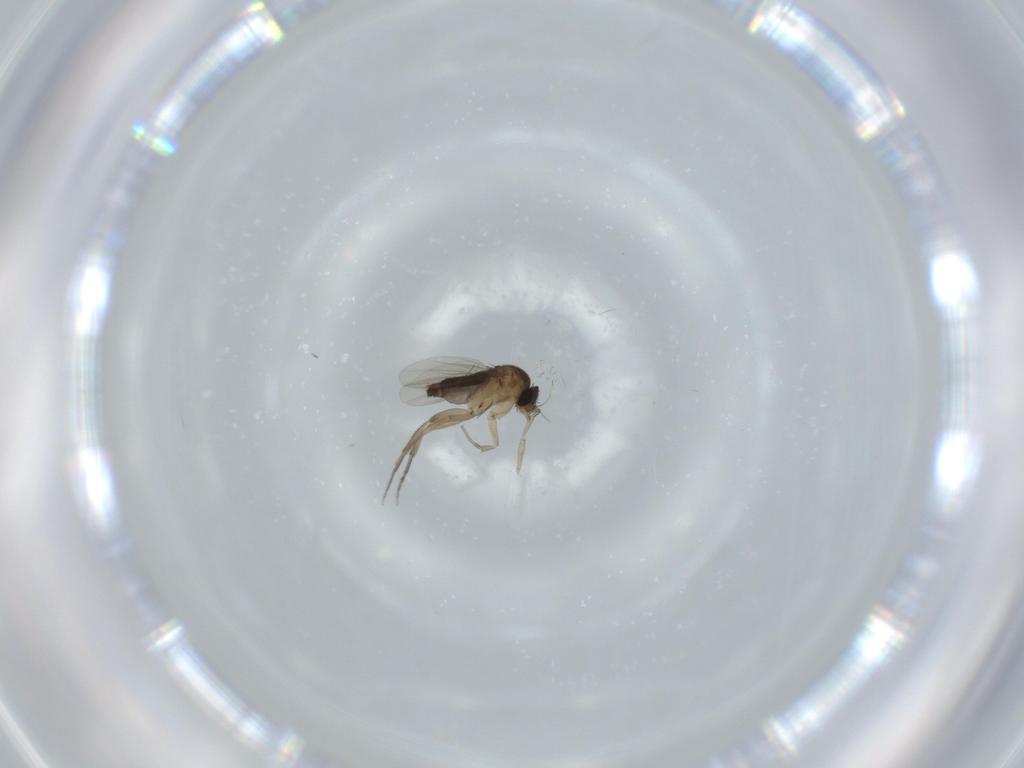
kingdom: Animalia
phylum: Arthropoda
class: Insecta
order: Diptera
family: Phoridae
